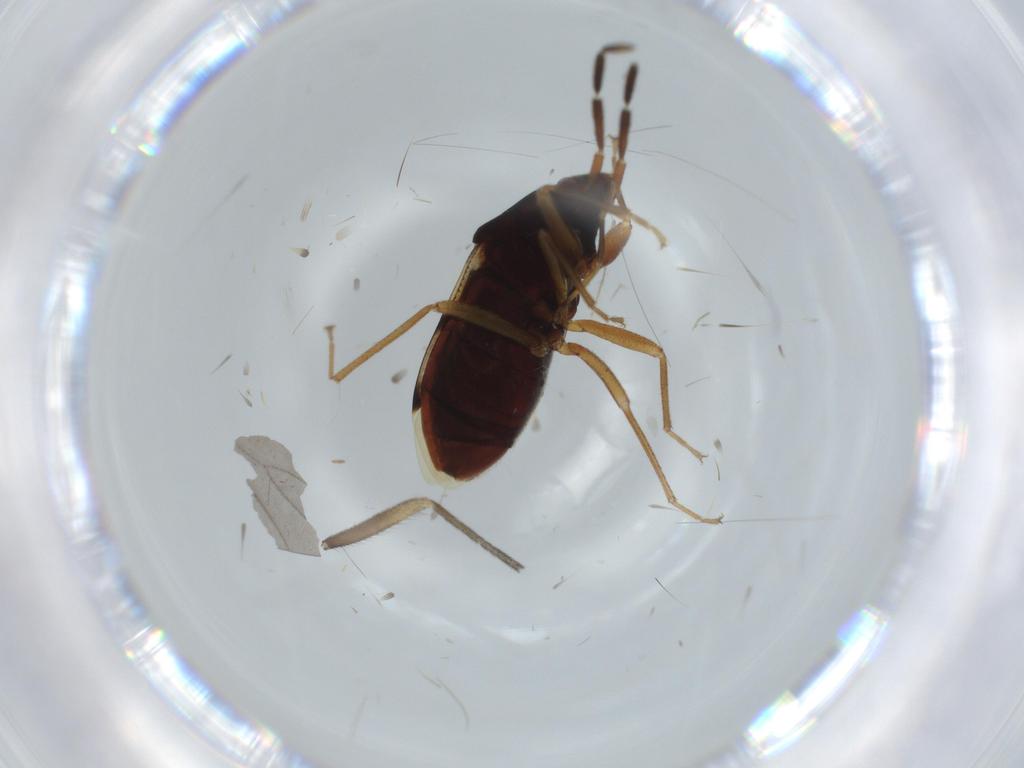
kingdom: Animalia
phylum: Arthropoda
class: Insecta
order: Hemiptera
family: Rhyparochromidae
